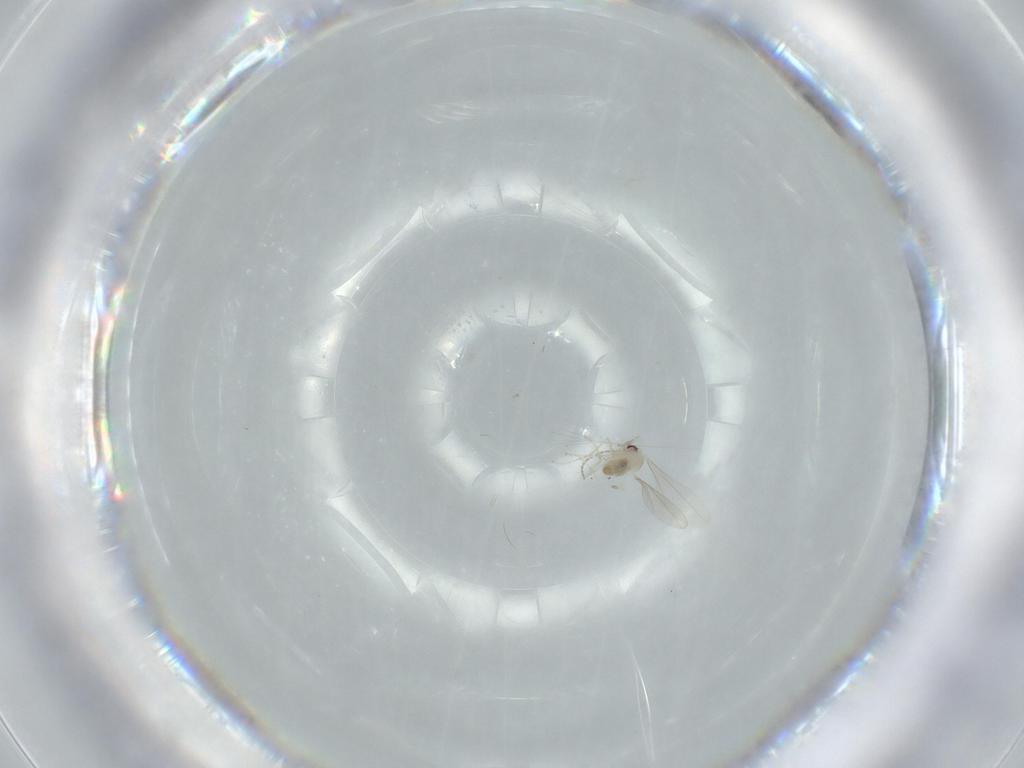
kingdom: Animalia
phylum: Arthropoda
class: Insecta
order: Diptera
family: Cecidomyiidae
